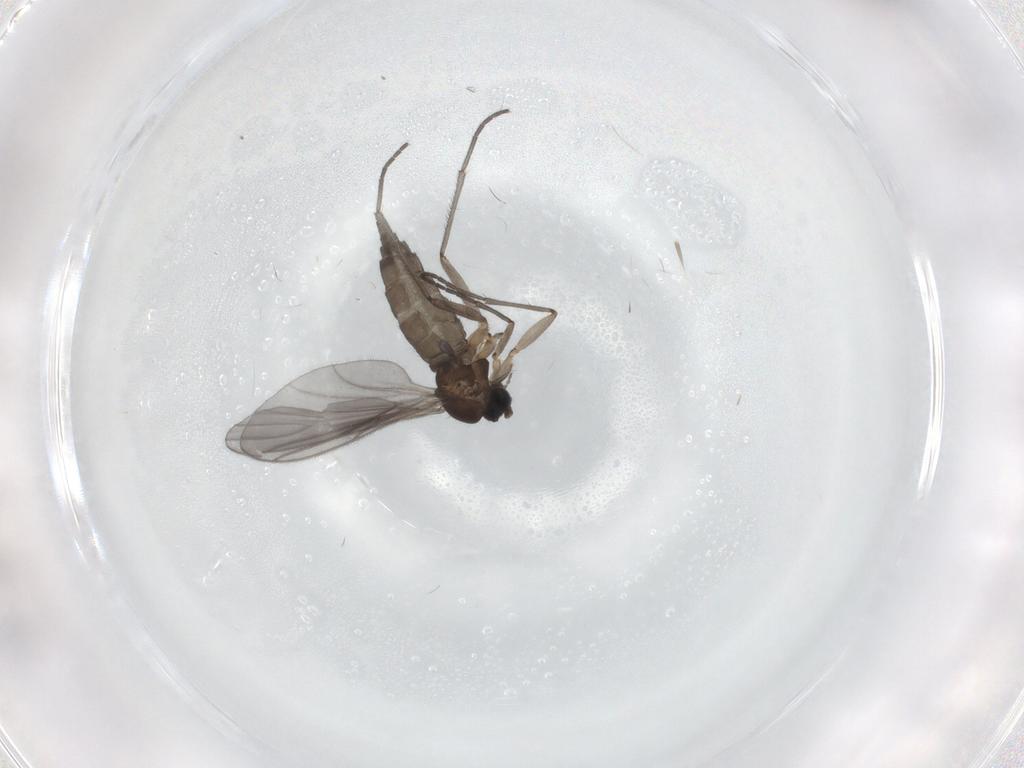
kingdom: Animalia
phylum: Arthropoda
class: Insecta
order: Diptera
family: Sciaridae
